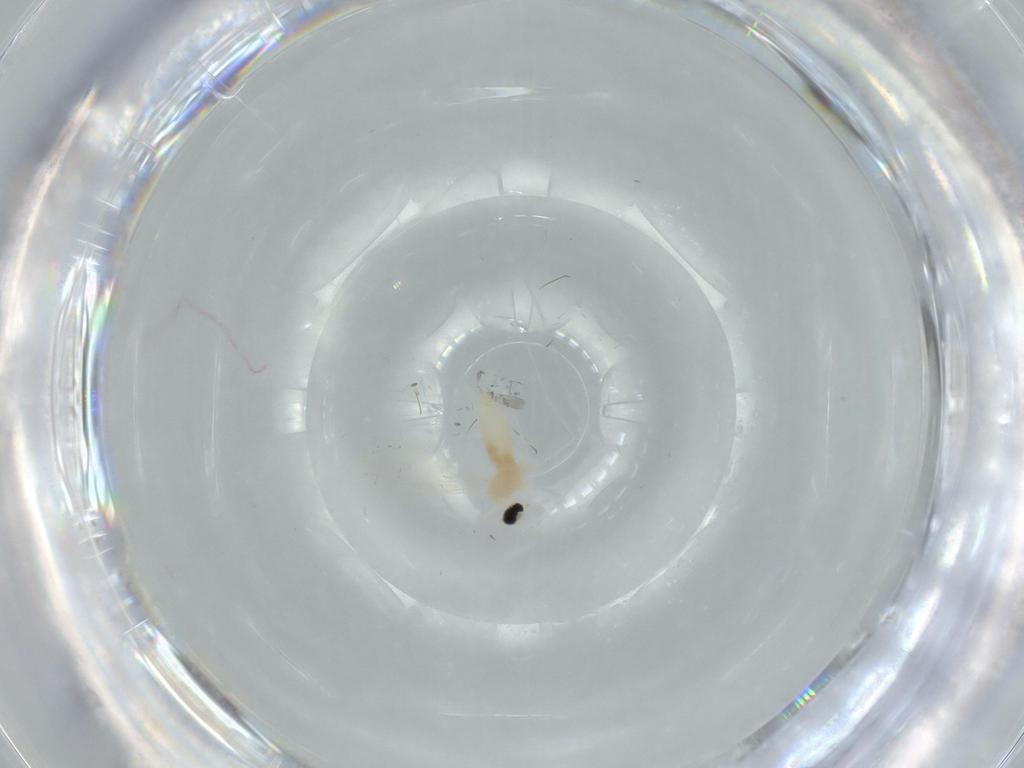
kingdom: Animalia
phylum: Arthropoda
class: Insecta
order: Diptera
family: Cecidomyiidae
